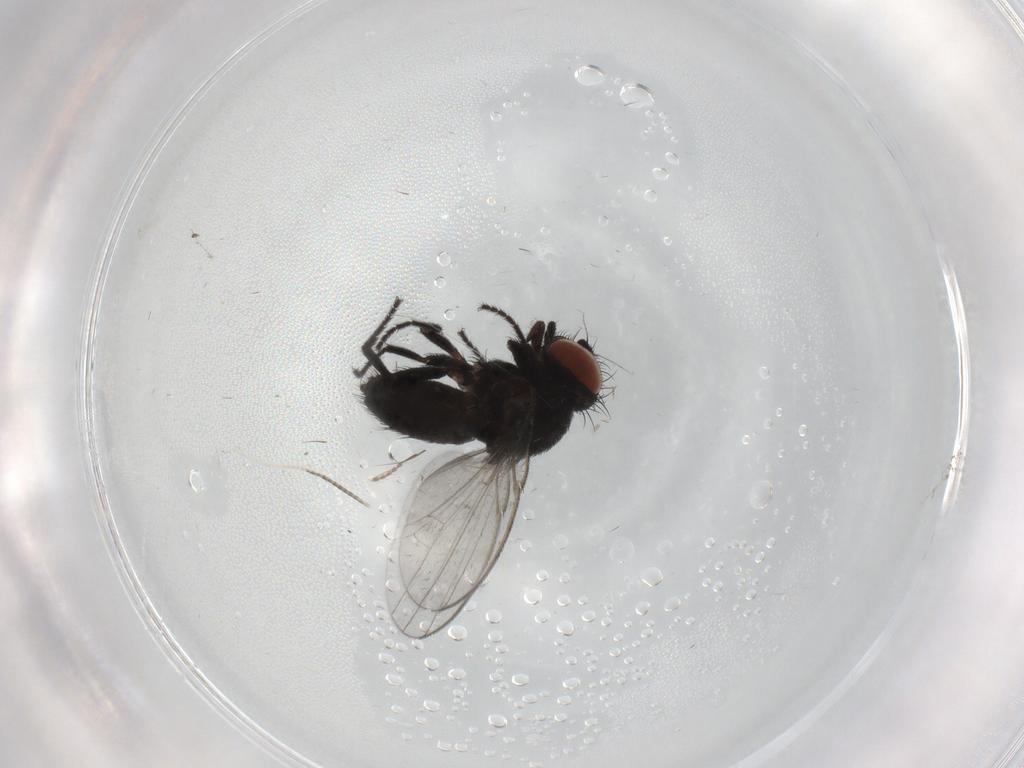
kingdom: Animalia
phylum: Arthropoda
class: Insecta
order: Diptera
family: Milichiidae
